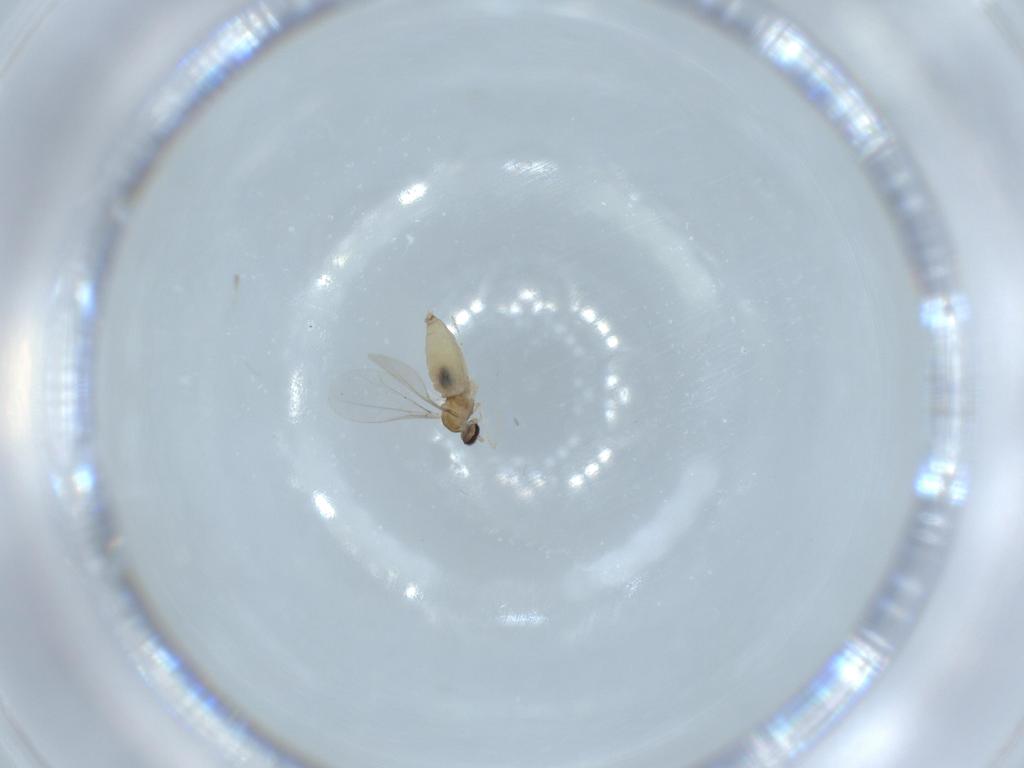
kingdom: Animalia
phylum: Arthropoda
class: Insecta
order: Diptera
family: Cecidomyiidae
